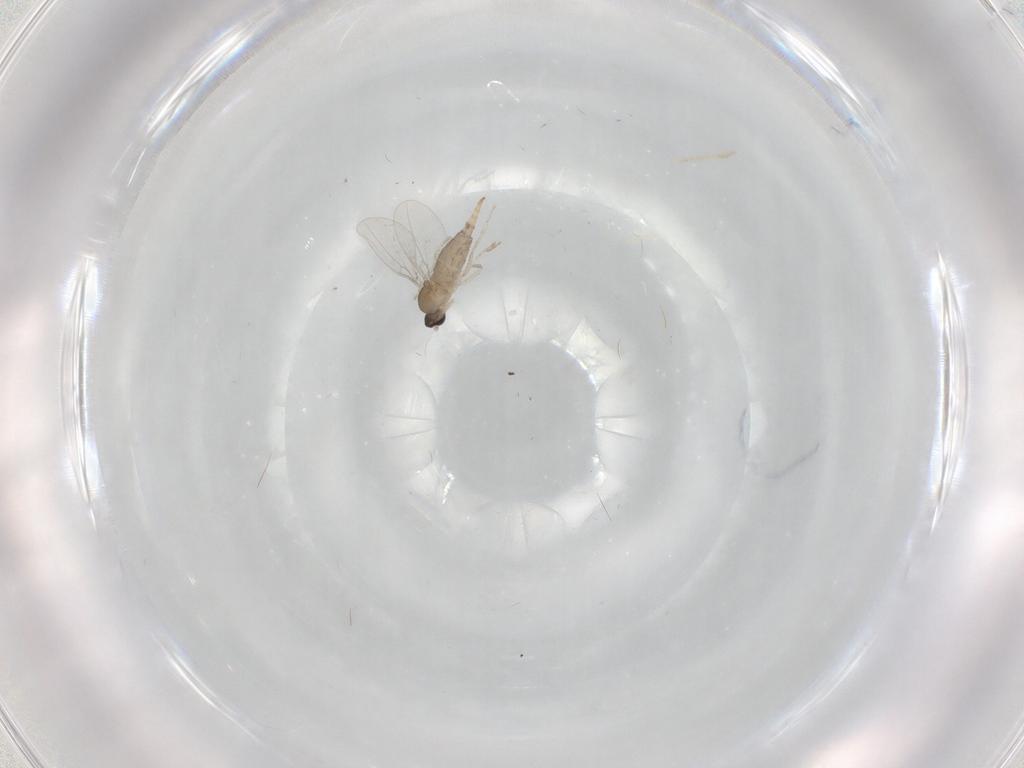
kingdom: Animalia
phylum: Arthropoda
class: Insecta
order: Diptera
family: Cecidomyiidae
